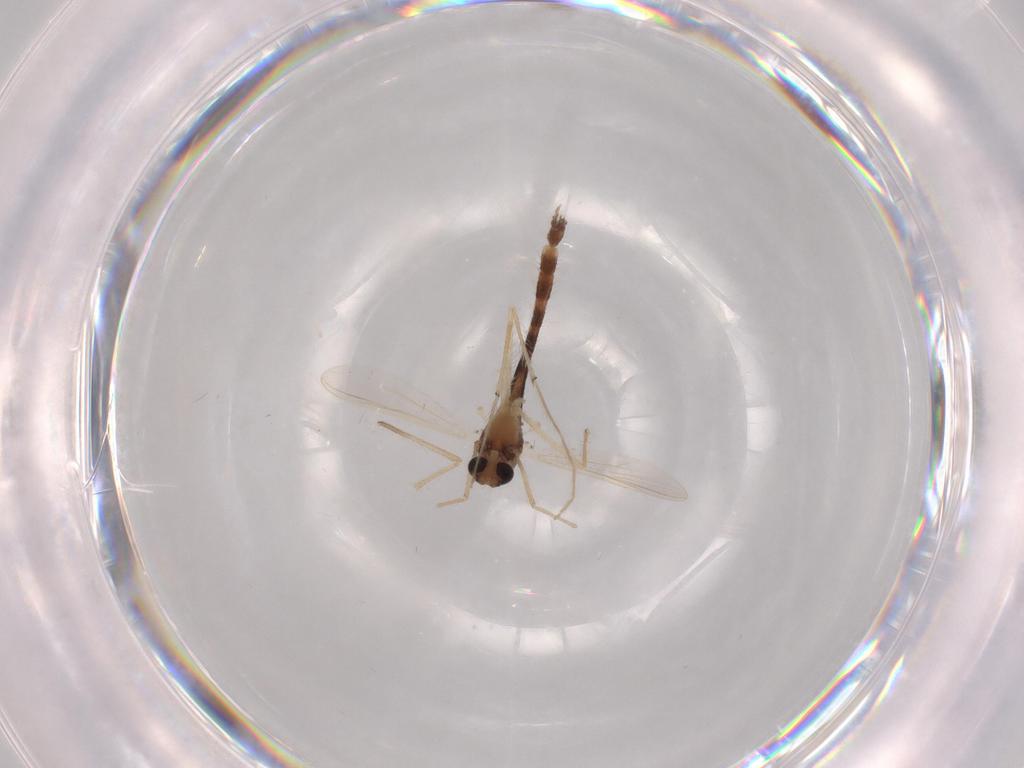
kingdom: Animalia
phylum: Arthropoda
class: Insecta
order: Diptera
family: Chironomidae
